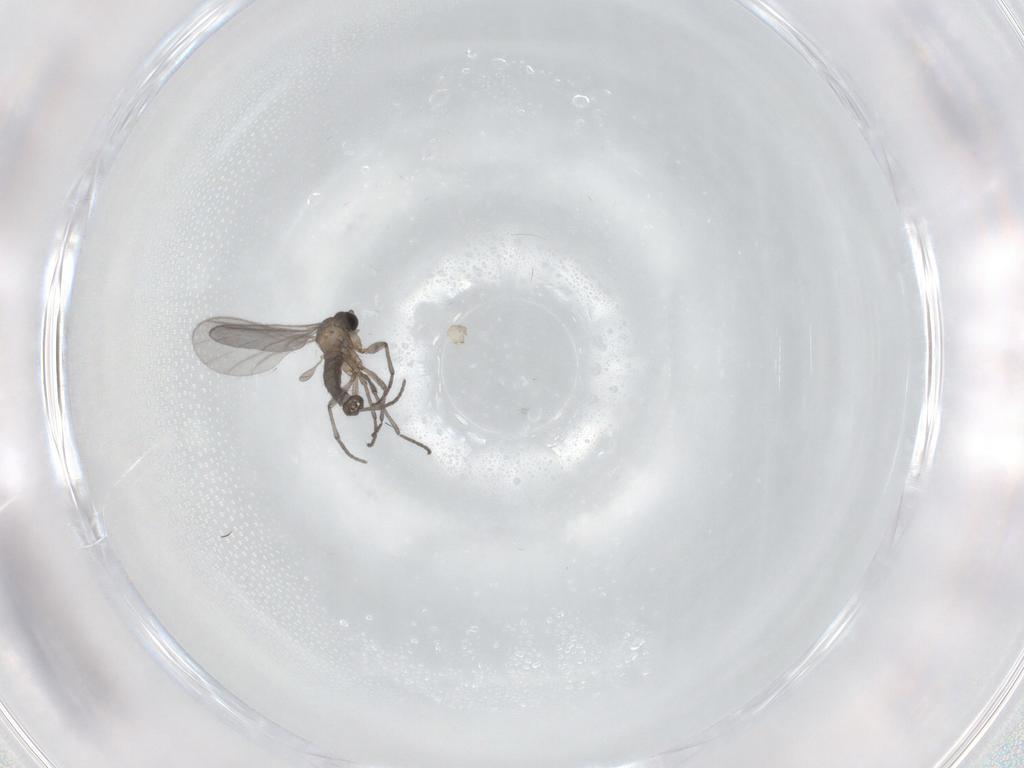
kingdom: Animalia
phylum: Arthropoda
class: Insecta
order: Diptera
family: Sciaridae
